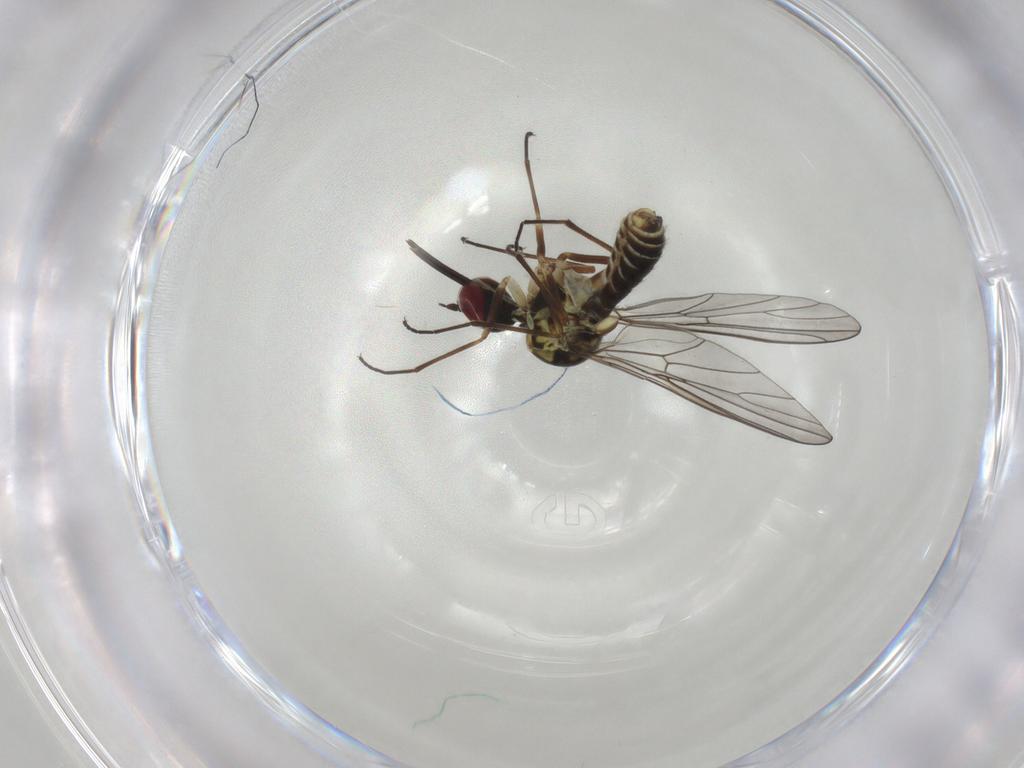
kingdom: Animalia
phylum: Arthropoda
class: Insecta
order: Diptera
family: Cecidomyiidae
